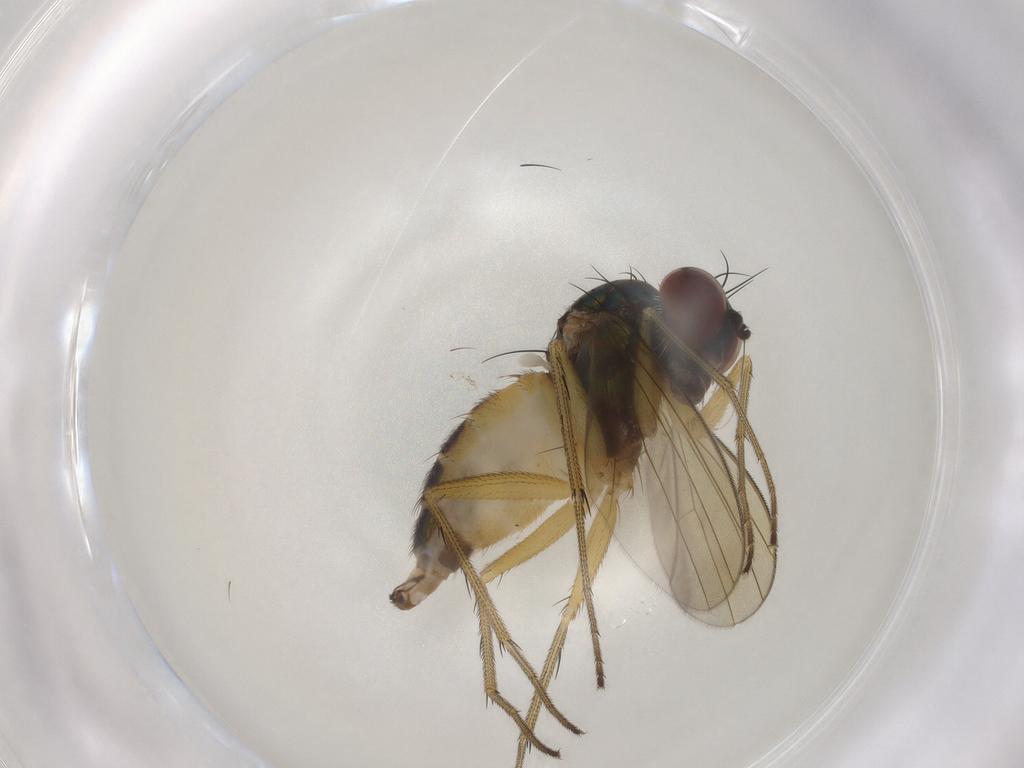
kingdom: Animalia
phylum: Arthropoda
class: Insecta
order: Diptera
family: Dolichopodidae
